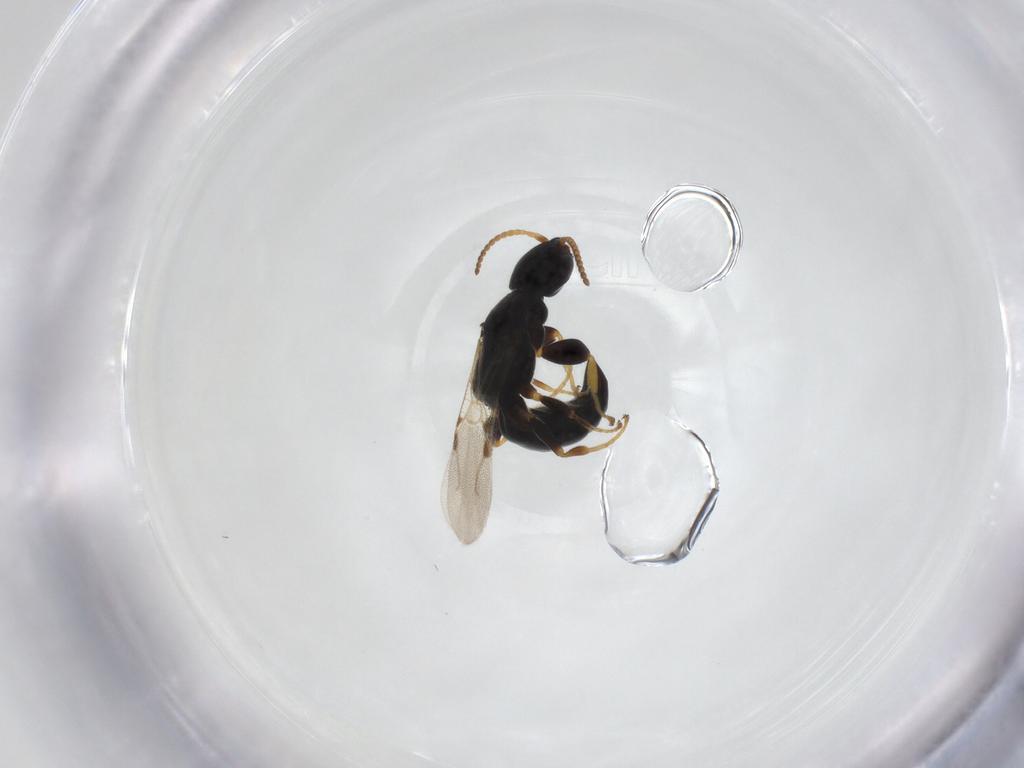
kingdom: Animalia
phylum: Arthropoda
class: Insecta
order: Hymenoptera
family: Bethylidae
